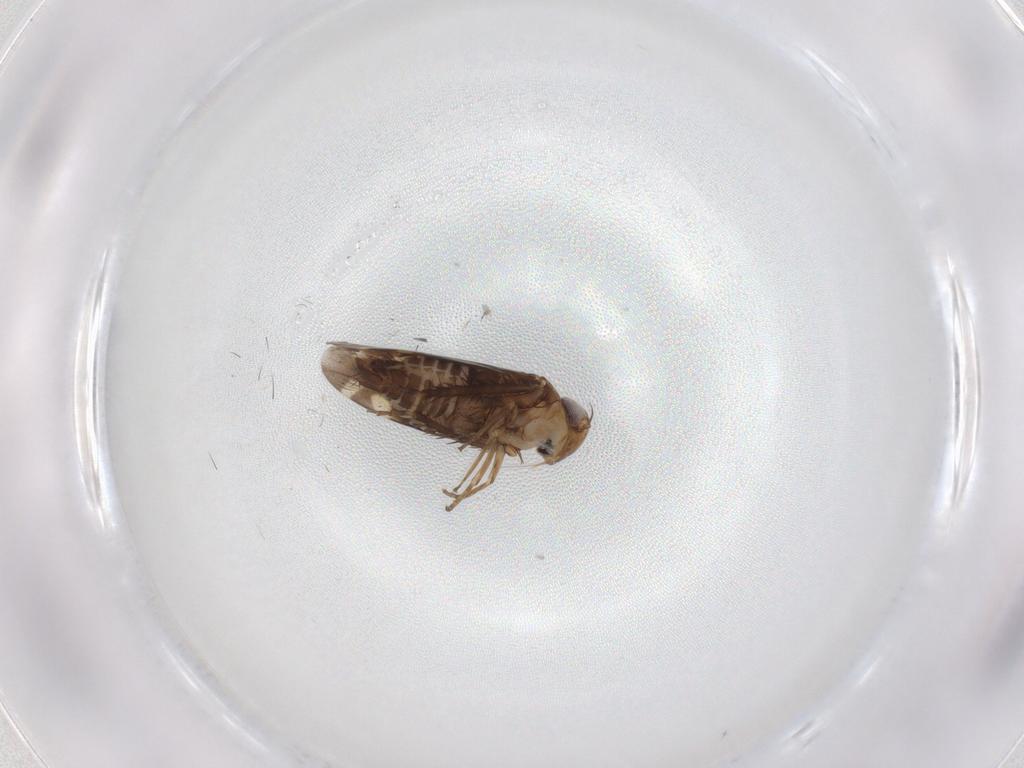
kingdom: Animalia
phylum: Arthropoda
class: Insecta
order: Hemiptera
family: Cicadellidae
